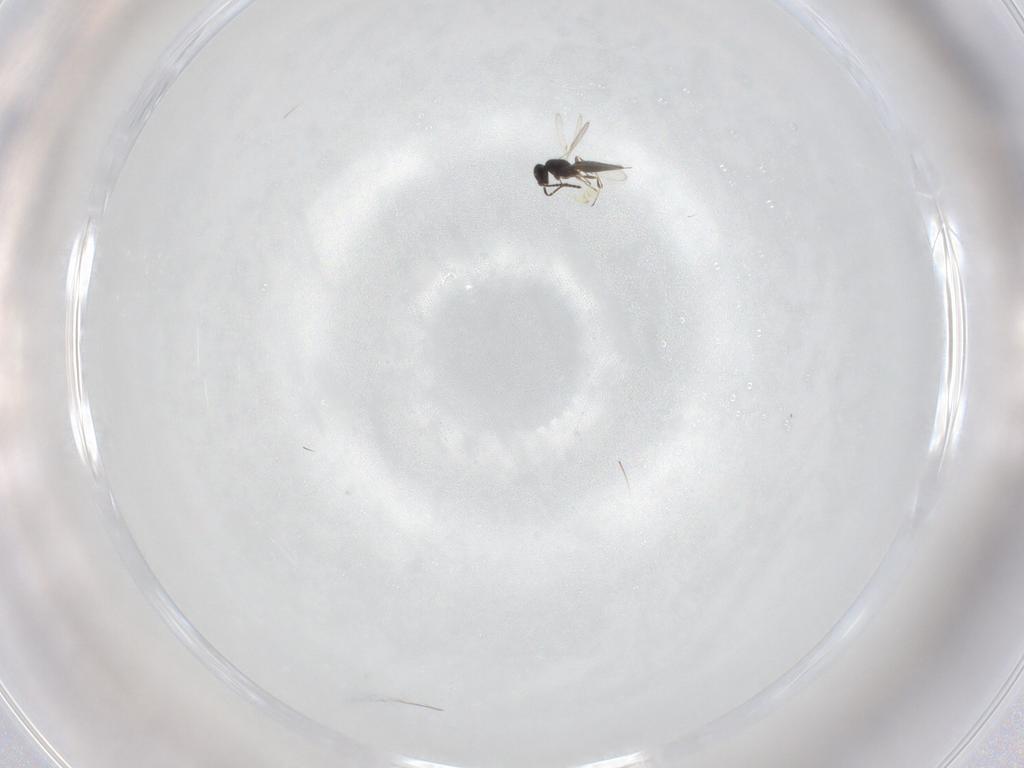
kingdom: Animalia
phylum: Arthropoda
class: Insecta
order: Hymenoptera
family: Scelionidae
